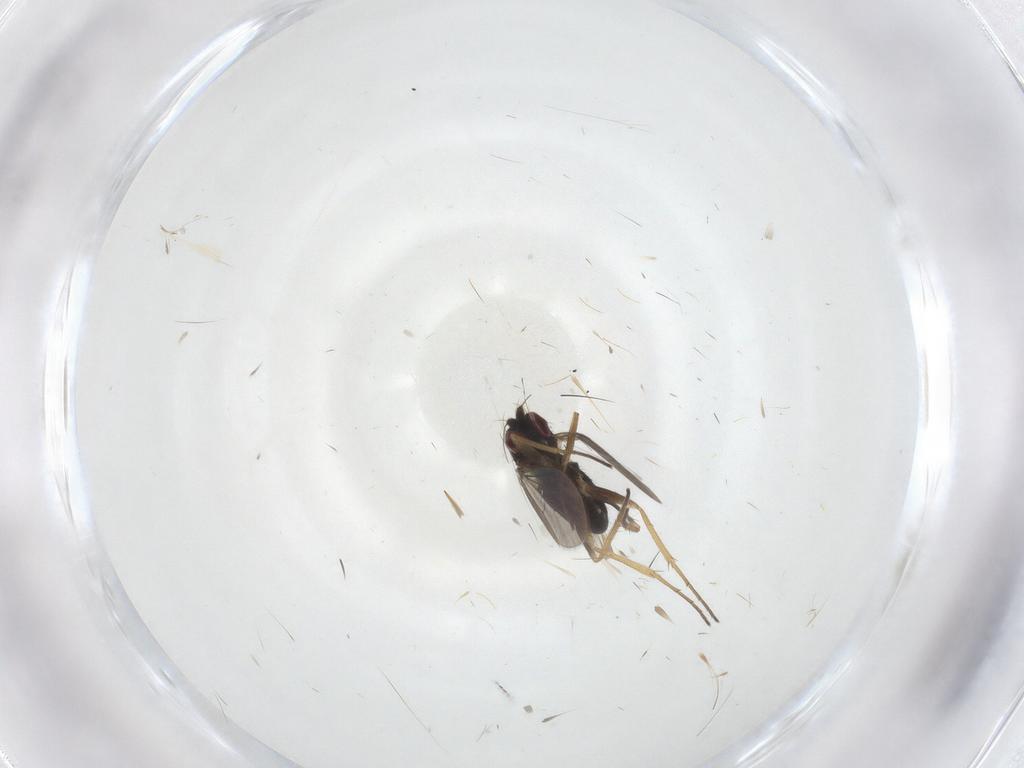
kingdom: Animalia
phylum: Arthropoda
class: Insecta
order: Diptera
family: Dolichopodidae
